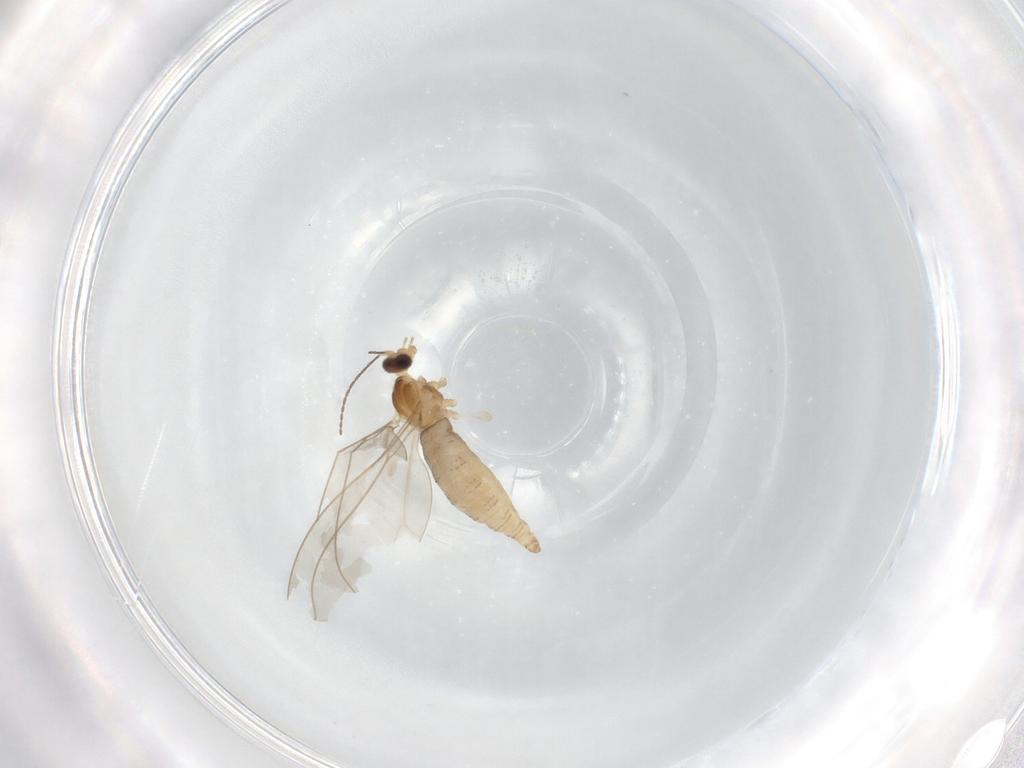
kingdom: Animalia
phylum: Arthropoda
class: Insecta
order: Diptera
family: Cecidomyiidae
